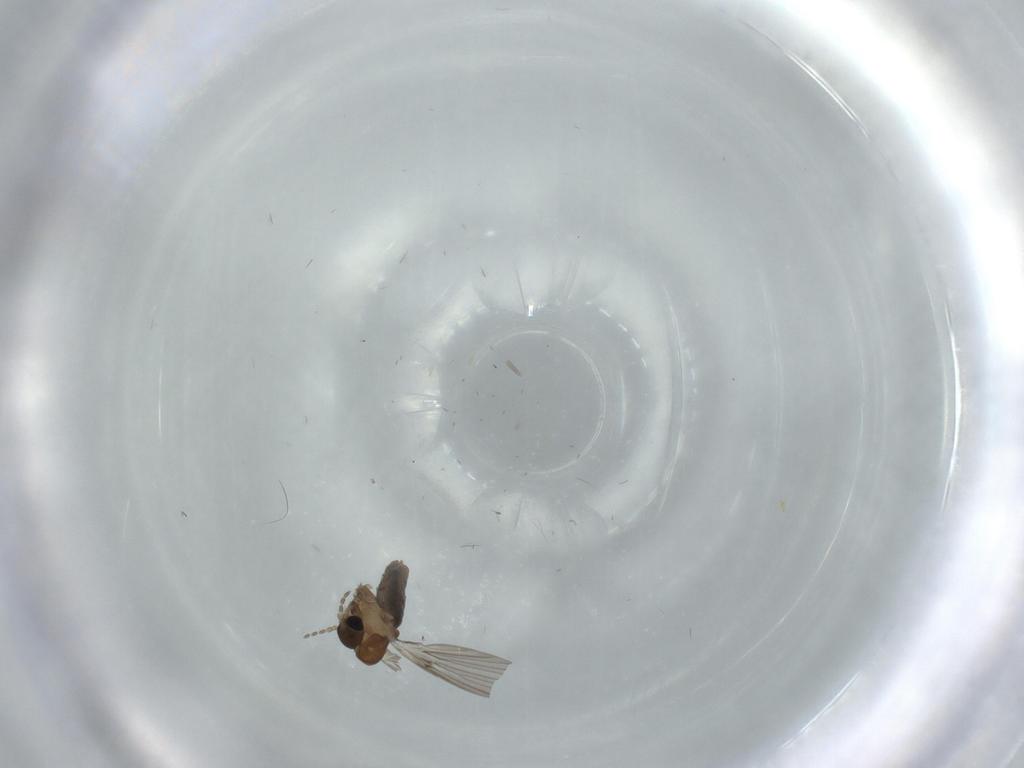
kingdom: Animalia
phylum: Arthropoda
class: Insecta
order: Diptera
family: Psychodidae
